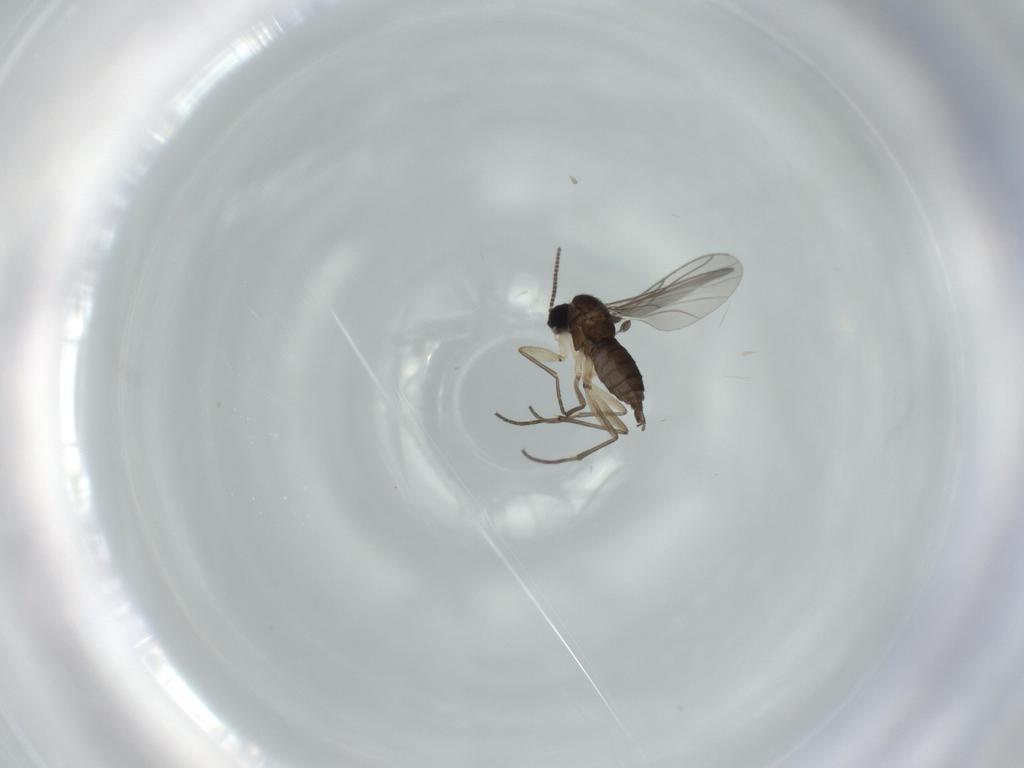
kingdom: Animalia
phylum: Arthropoda
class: Insecta
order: Diptera
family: Sciaridae
